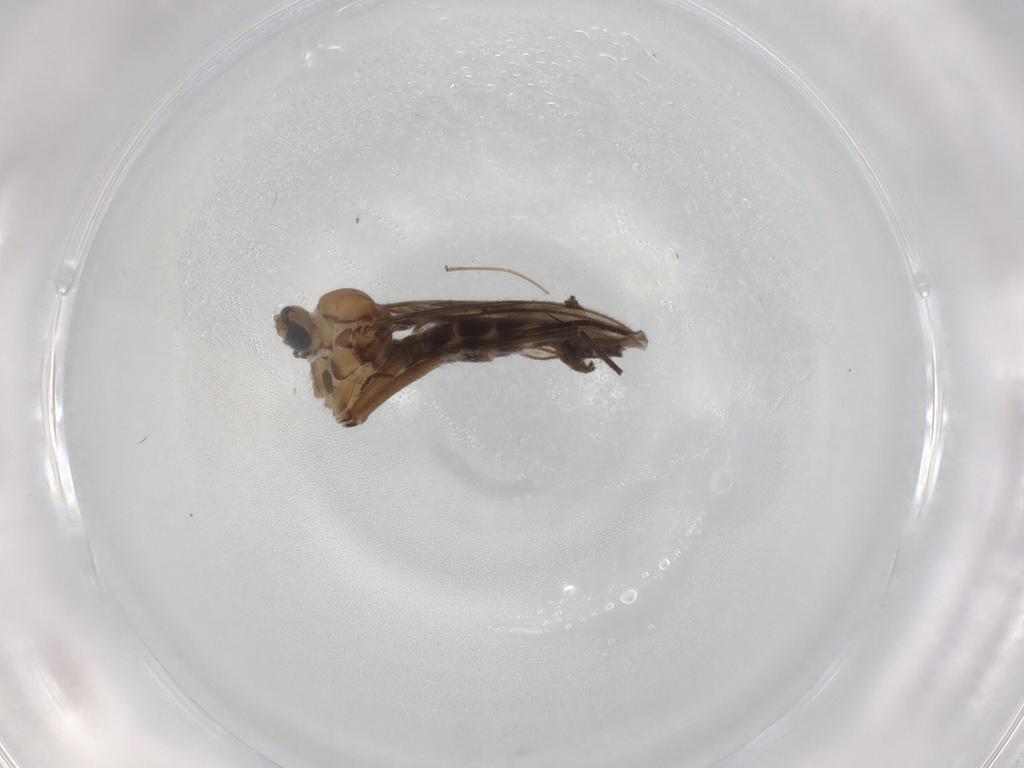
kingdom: Animalia
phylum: Arthropoda
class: Insecta
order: Diptera
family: Sciaridae
